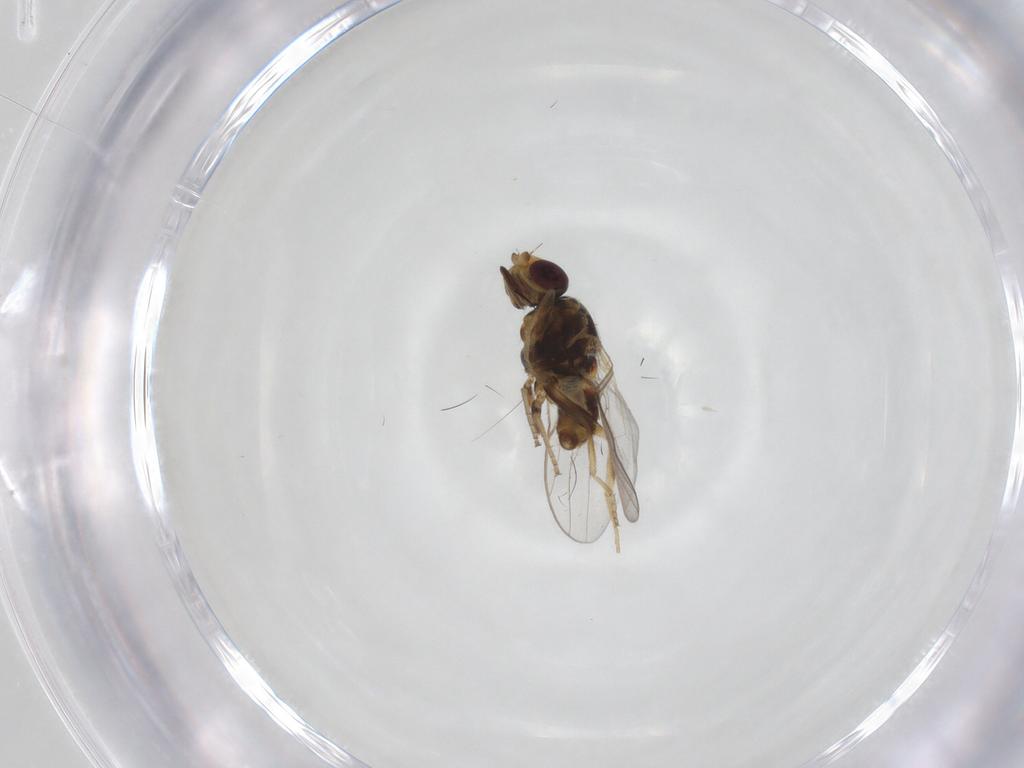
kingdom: Animalia
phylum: Arthropoda
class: Insecta
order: Diptera
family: Chloropidae
